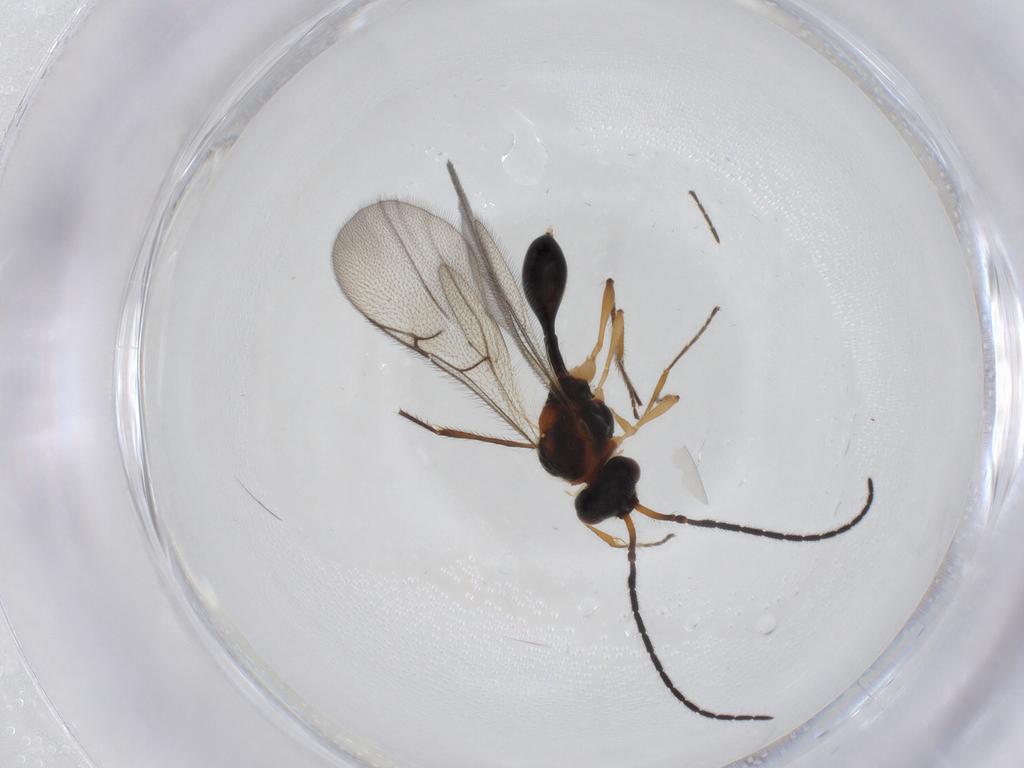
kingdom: Animalia
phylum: Arthropoda
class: Insecta
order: Hymenoptera
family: Diapriidae
